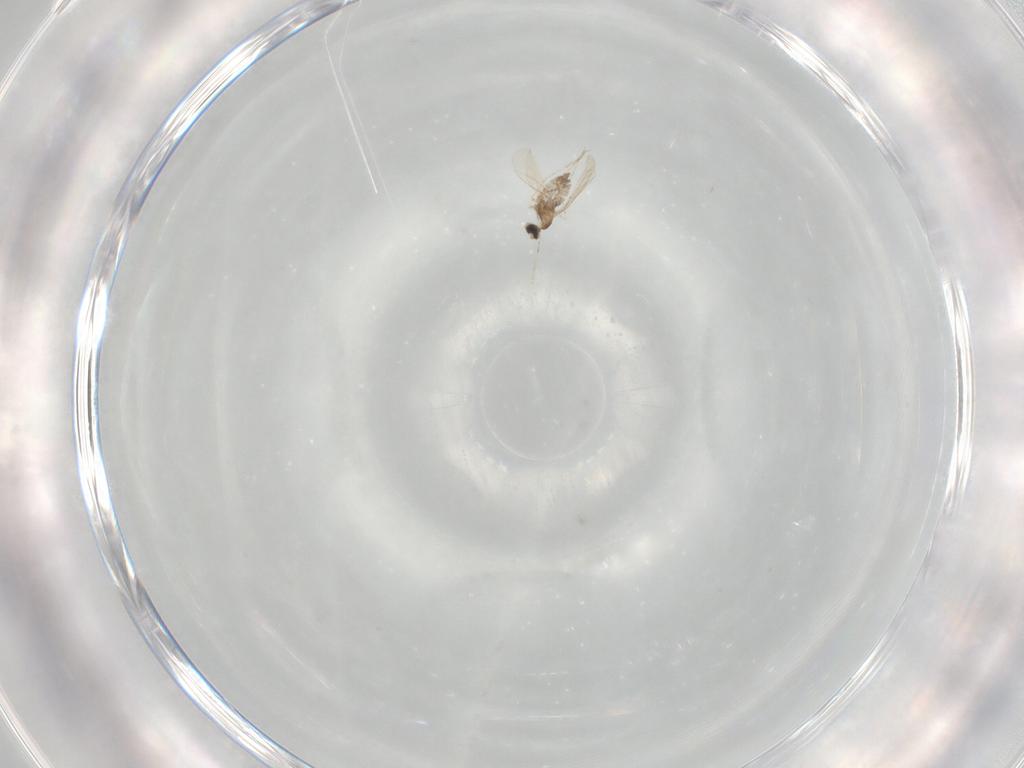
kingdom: Animalia
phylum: Arthropoda
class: Insecta
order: Diptera
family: Cecidomyiidae
